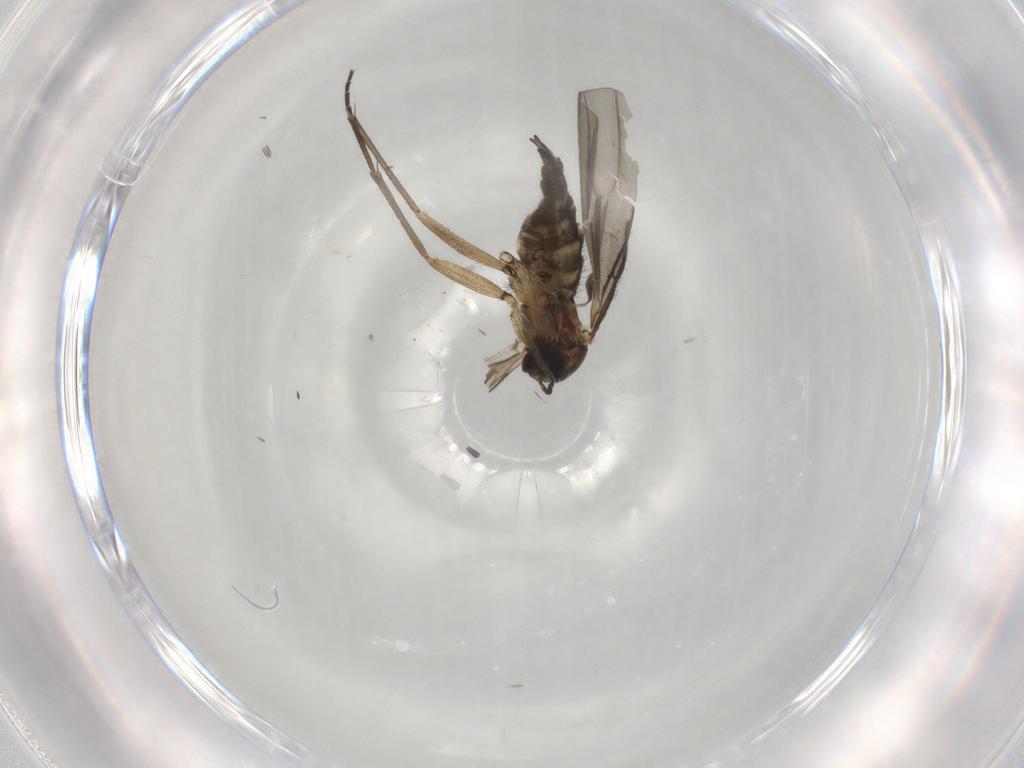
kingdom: Animalia
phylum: Arthropoda
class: Insecta
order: Diptera
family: Sciaridae
